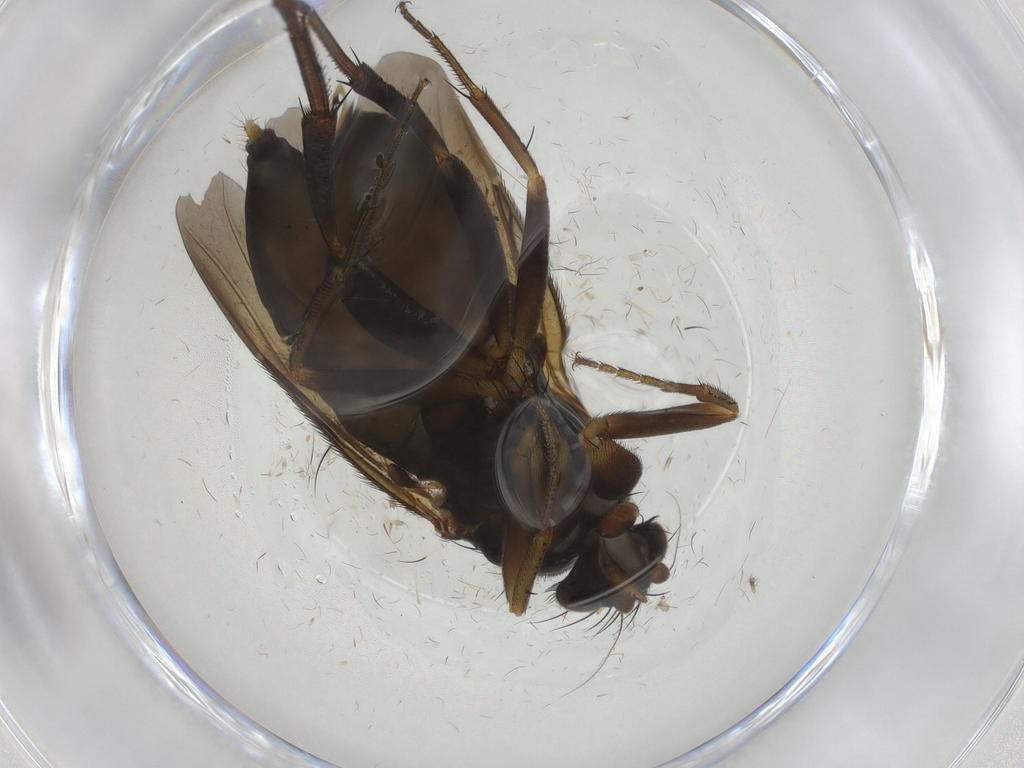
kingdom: Animalia
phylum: Arthropoda
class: Insecta
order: Diptera
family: Phoridae
